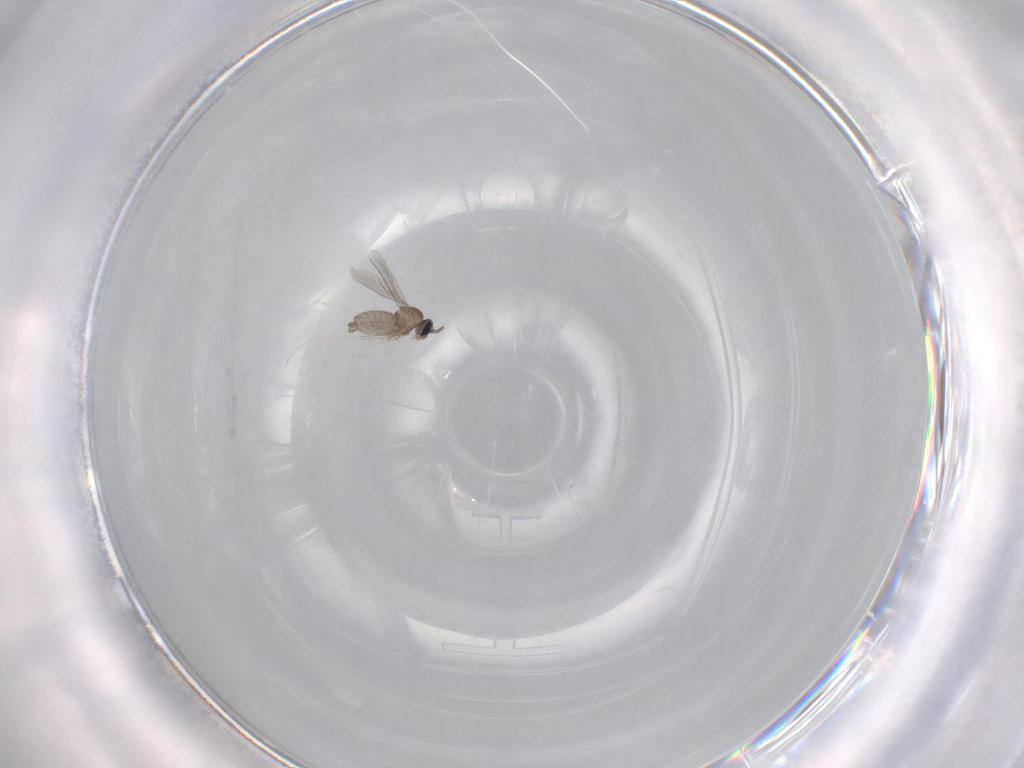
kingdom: Animalia
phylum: Arthropoda
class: Insecta
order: Diptera
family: Cecidomyiidae
